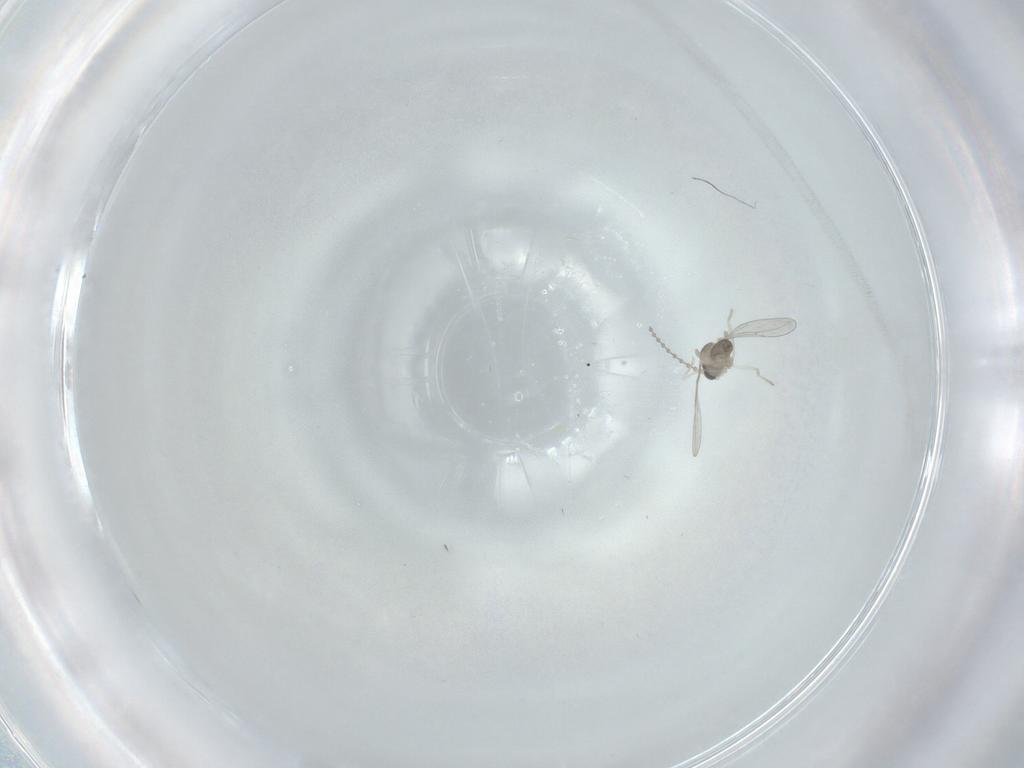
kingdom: Animalia
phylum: Arthropoda
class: Insecta
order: Diptera
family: Cecidomyiidae
